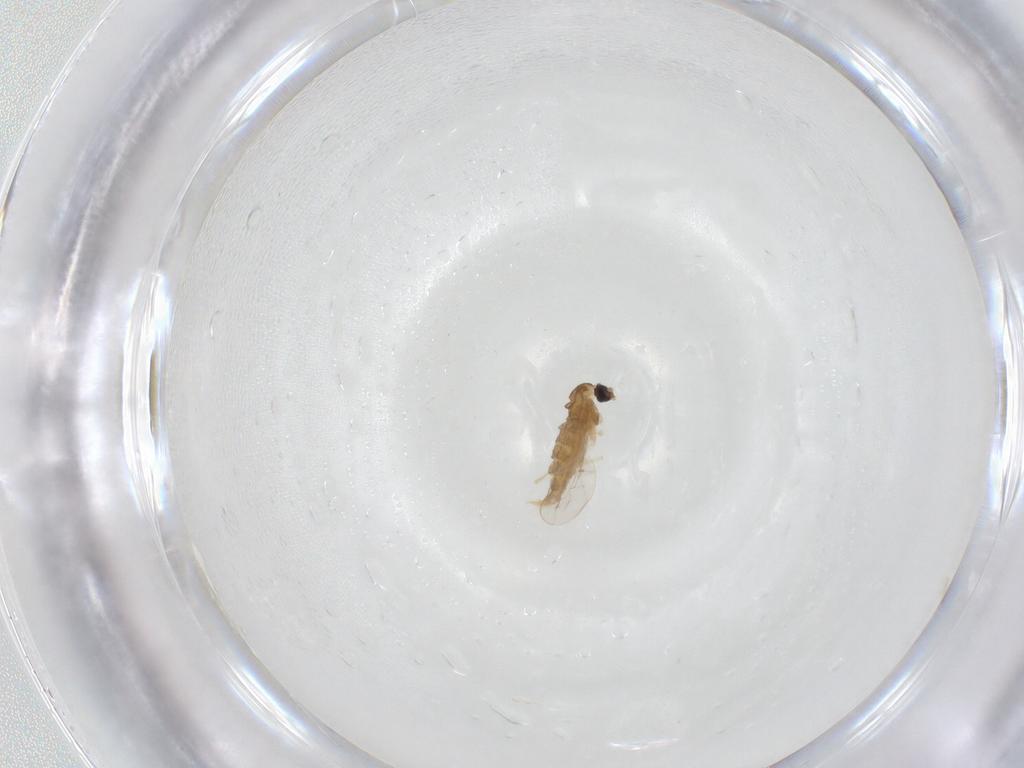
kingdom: Animalia
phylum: Arthropoda
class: Insecta
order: Diptera
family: Cecidomyiidae
